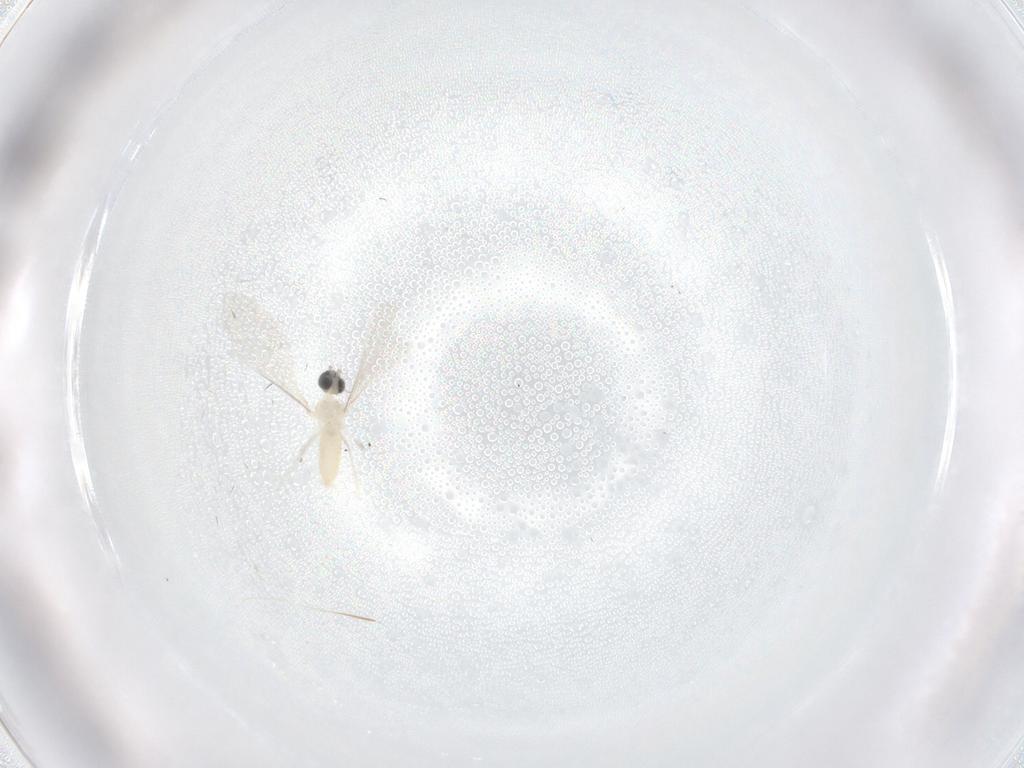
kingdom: Animalia
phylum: Arthropoda
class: Insecta
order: Diptera
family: Cecidomyiidae
